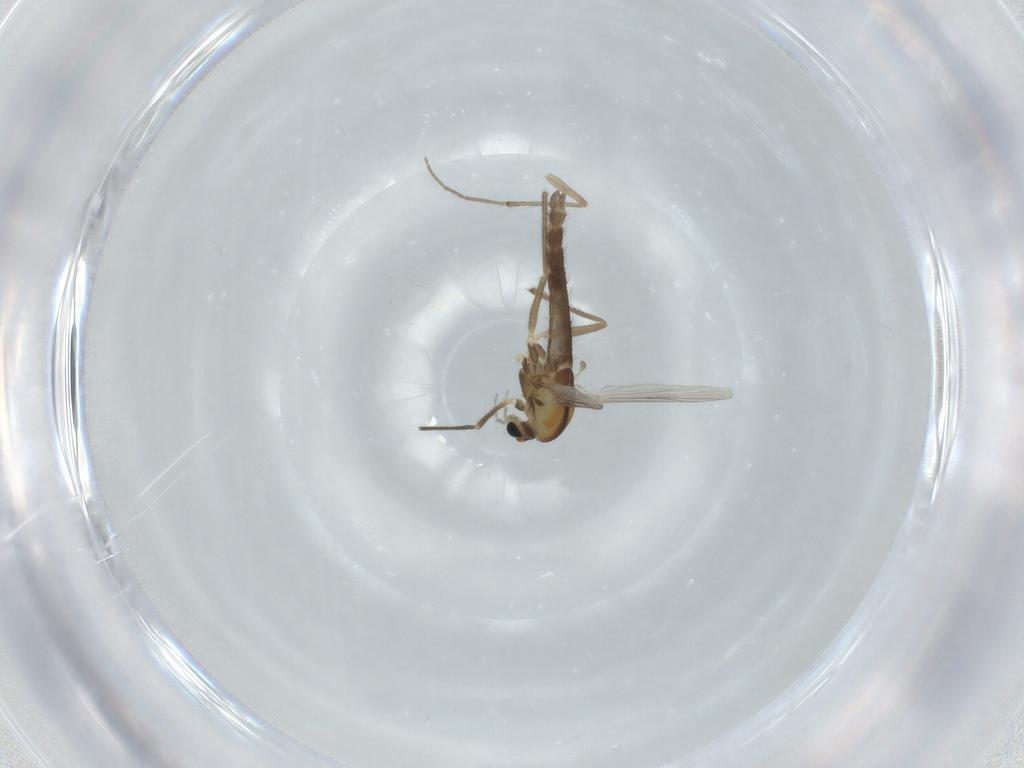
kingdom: Animalia
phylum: Arthropoda
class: Insecta
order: Diptera
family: Chironomidae
